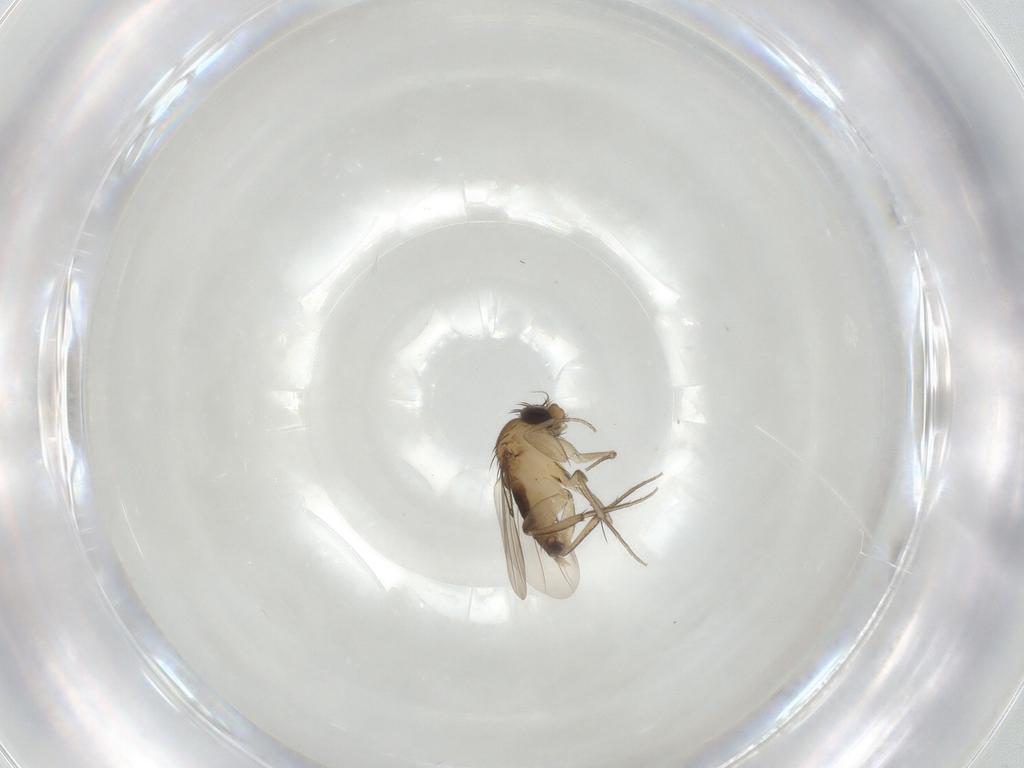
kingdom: Animalia
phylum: Arthropoda
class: Insecta
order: Diptera
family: Phoridae
